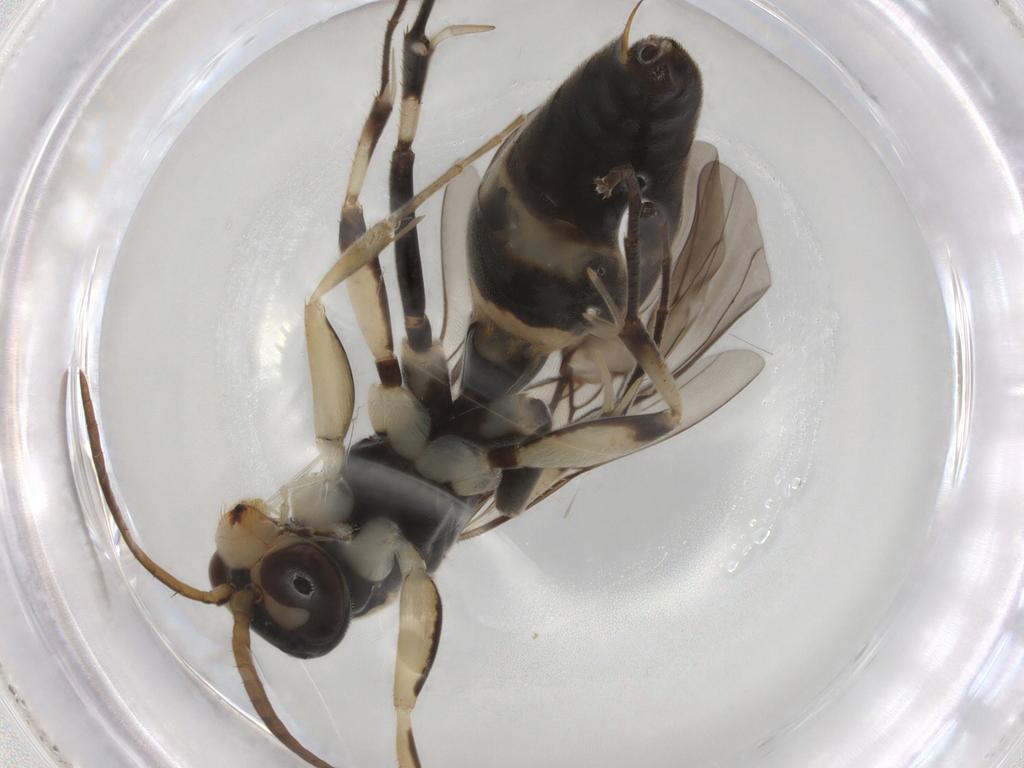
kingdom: Animalia
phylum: Arthropoda
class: Insecta
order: Hymenoptera
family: Rhopalosomatidae
